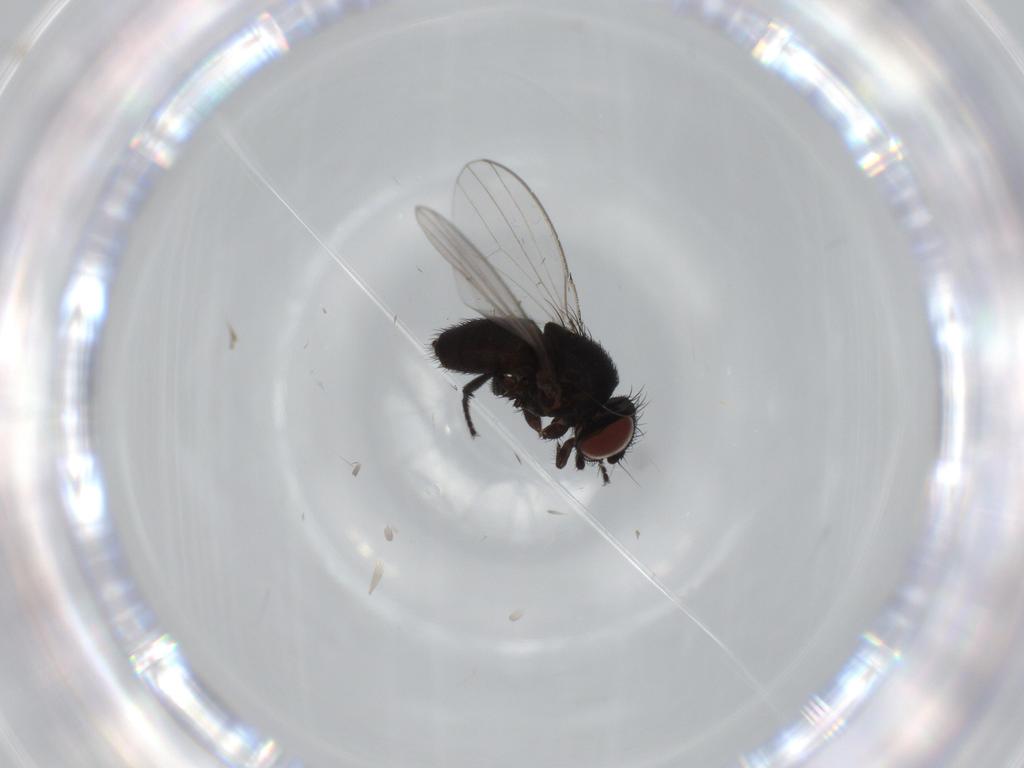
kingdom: Animalia
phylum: Arthropoda
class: Insecta
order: Diptera
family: Milichiidae
